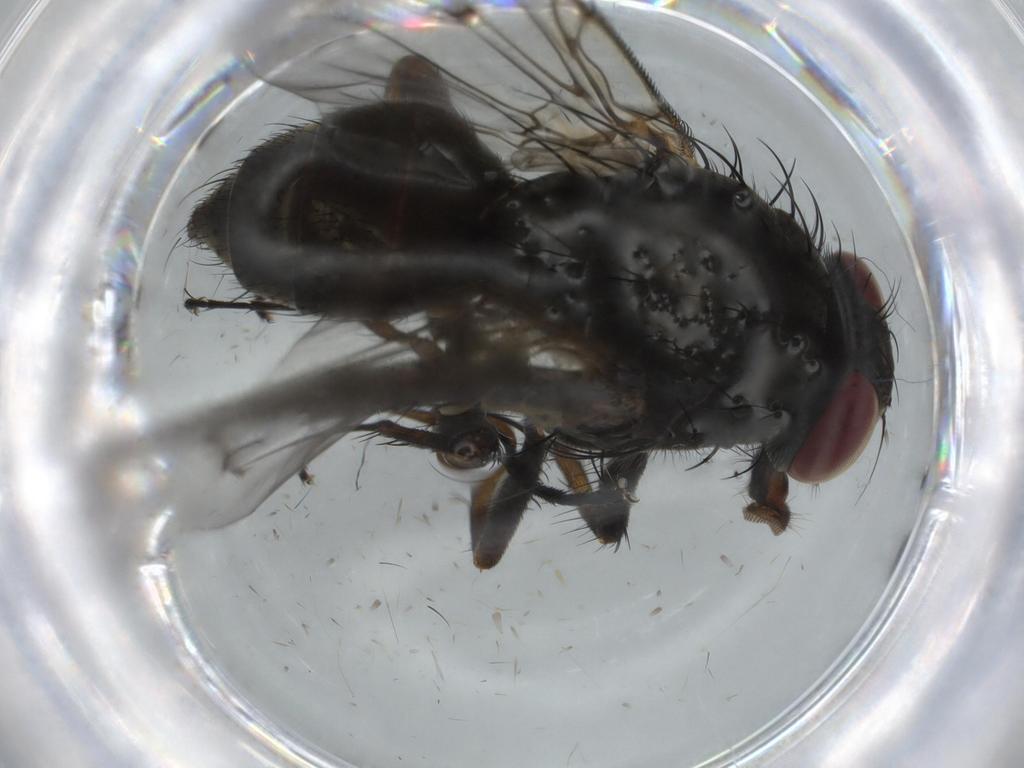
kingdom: Animalia
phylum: Arthropoda
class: Insecta
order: Diptera
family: Muscidae
